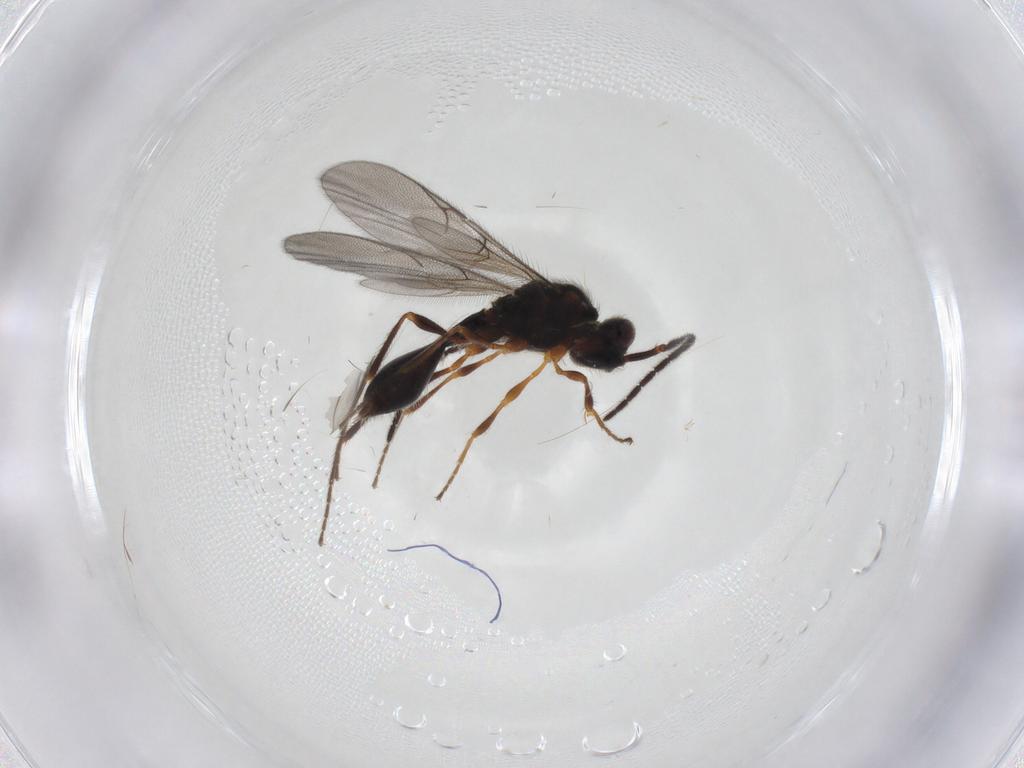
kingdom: Animalia
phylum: Arthropoda
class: Insecta
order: Hymenoptera
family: Diapriidae
